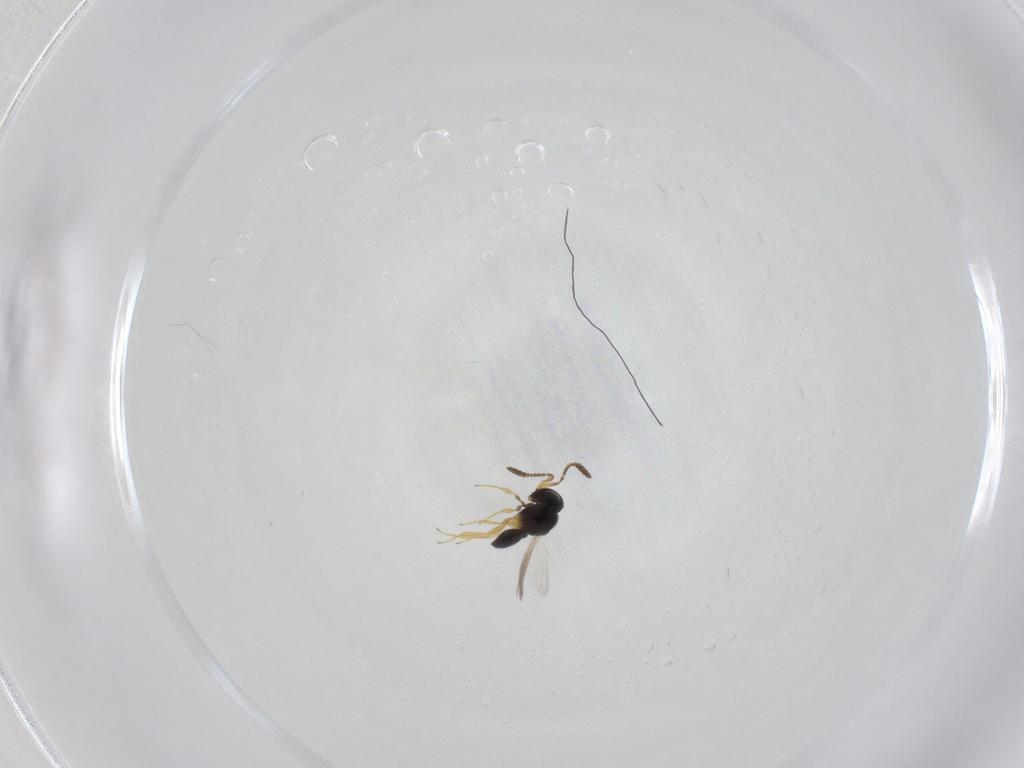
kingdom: Animalia
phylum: Arthropoda
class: Insecta
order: Hymenoptera
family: Scelionidae
